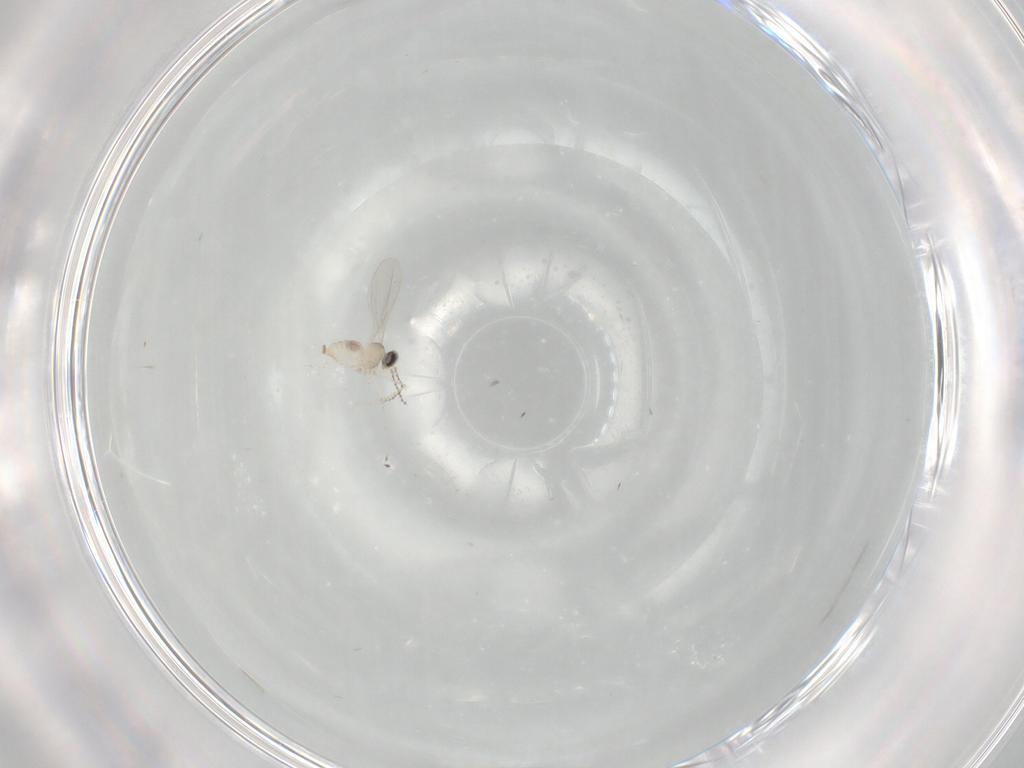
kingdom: Animalia
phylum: Arthropoda
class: Insecta
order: Diptera
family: Cecidomyiidae
